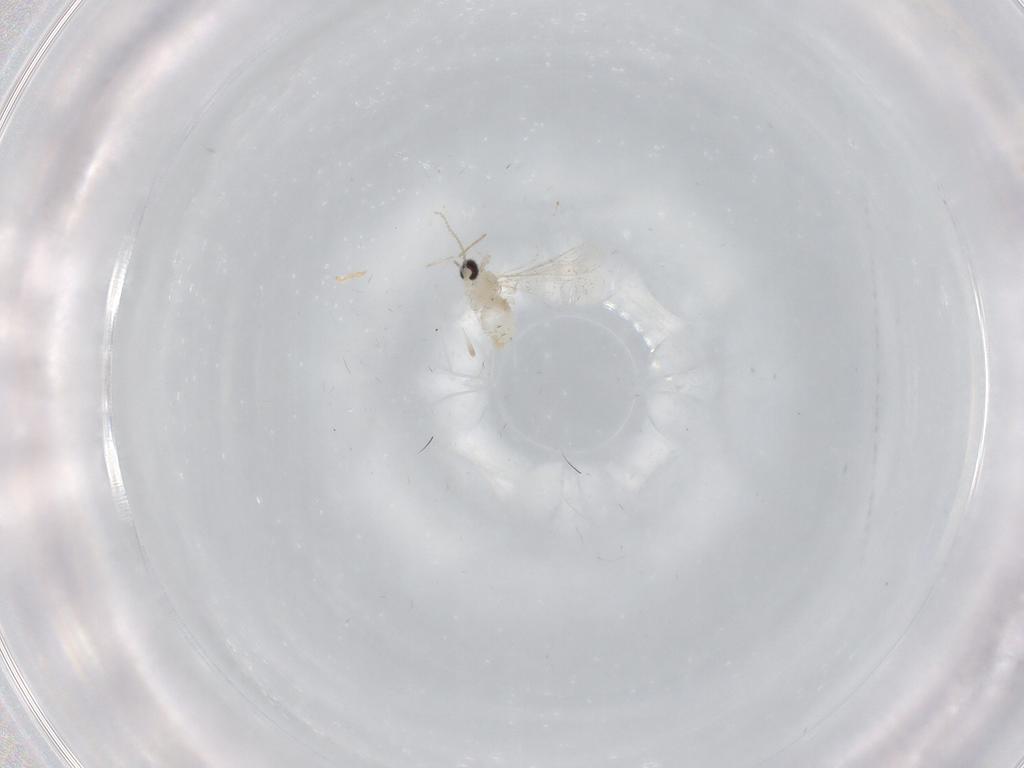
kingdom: Animalia
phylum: Arthropoda
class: Insecta
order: Diptera
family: Cecidomyiidae
